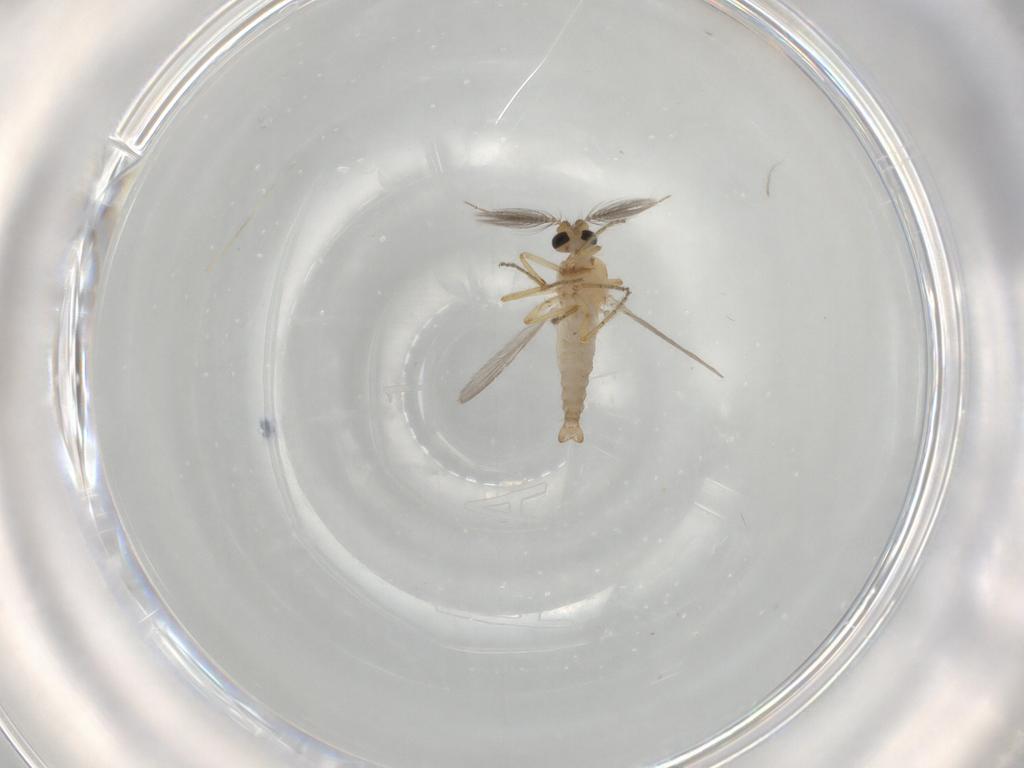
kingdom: Animalia
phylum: Arthropoda
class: Insecta
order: Diptera
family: Ceratopogonidae
